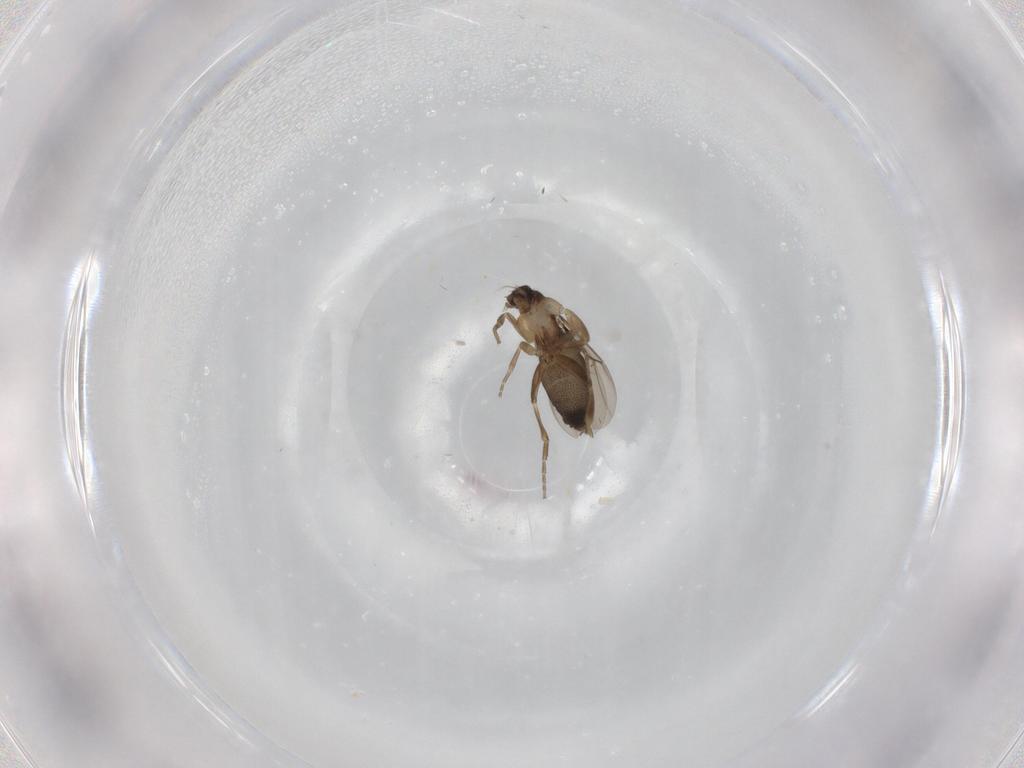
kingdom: Animalia
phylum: Arthropoda
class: Insecta
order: Diptera
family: Phoridae
